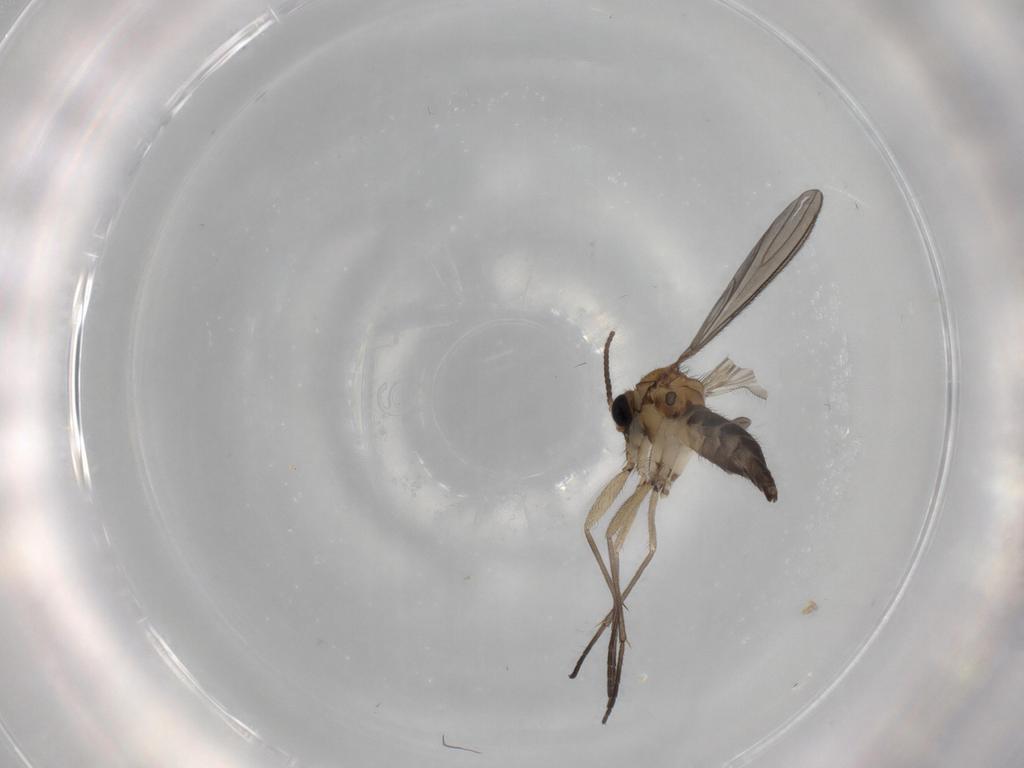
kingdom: Animalia
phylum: Arthropoda
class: Insecta
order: Diptera
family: Sciaridae
